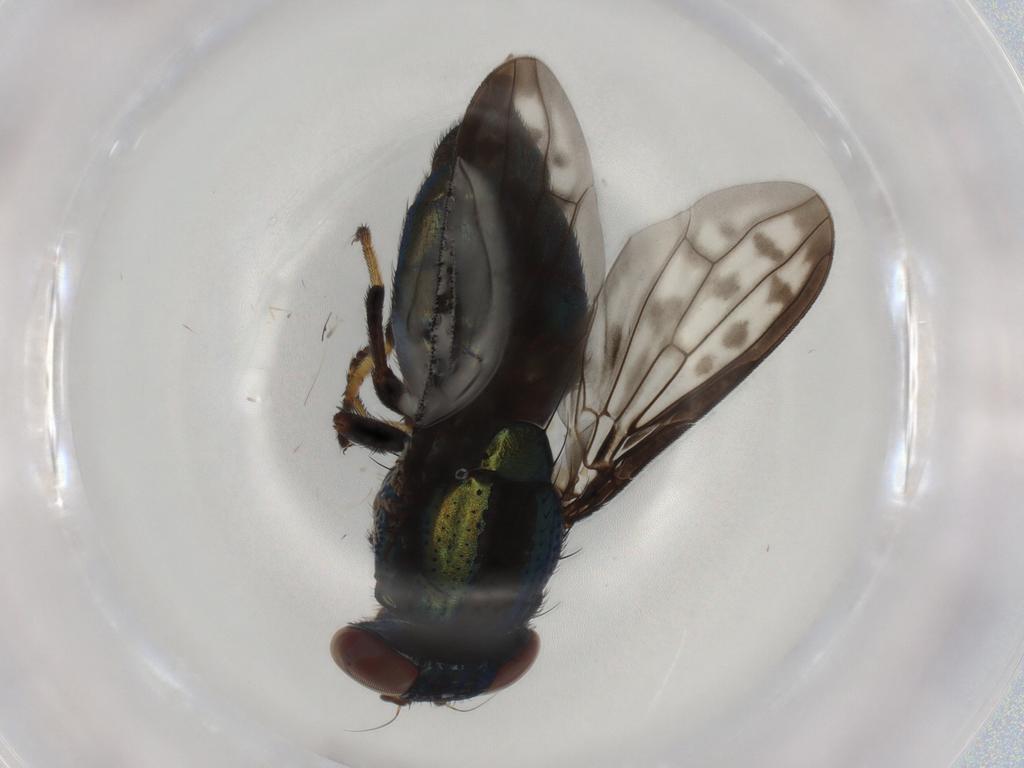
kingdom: Animalia
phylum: Arthropoda
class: Insecta
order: Diptera
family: Ulidiidae
